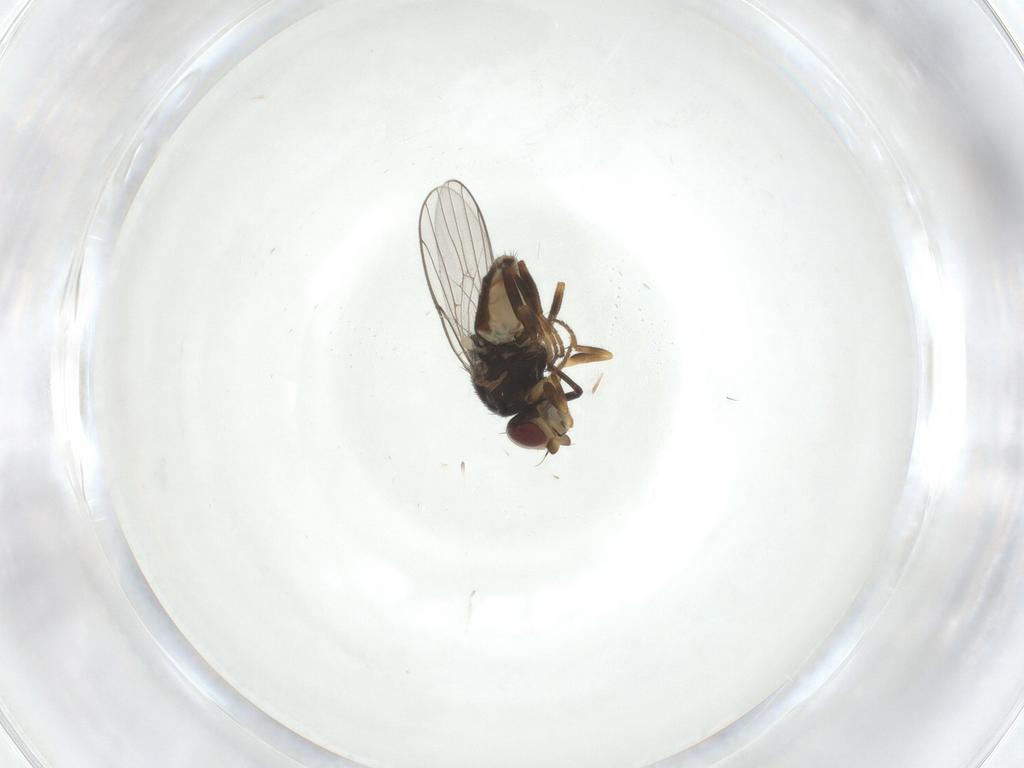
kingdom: Animalia
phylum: Arthropoda
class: Insecta
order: Diptera
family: Chloropidae
